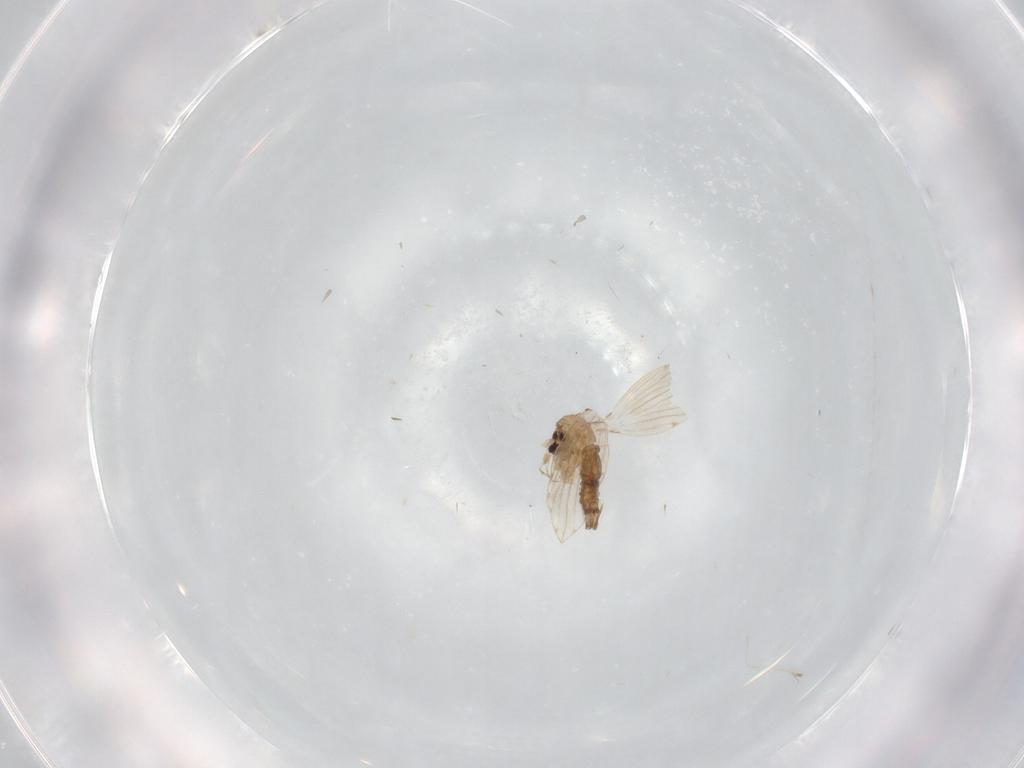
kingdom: Animalia
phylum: Arthropoda
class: Insecta
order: Diptera
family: Psychodidae
